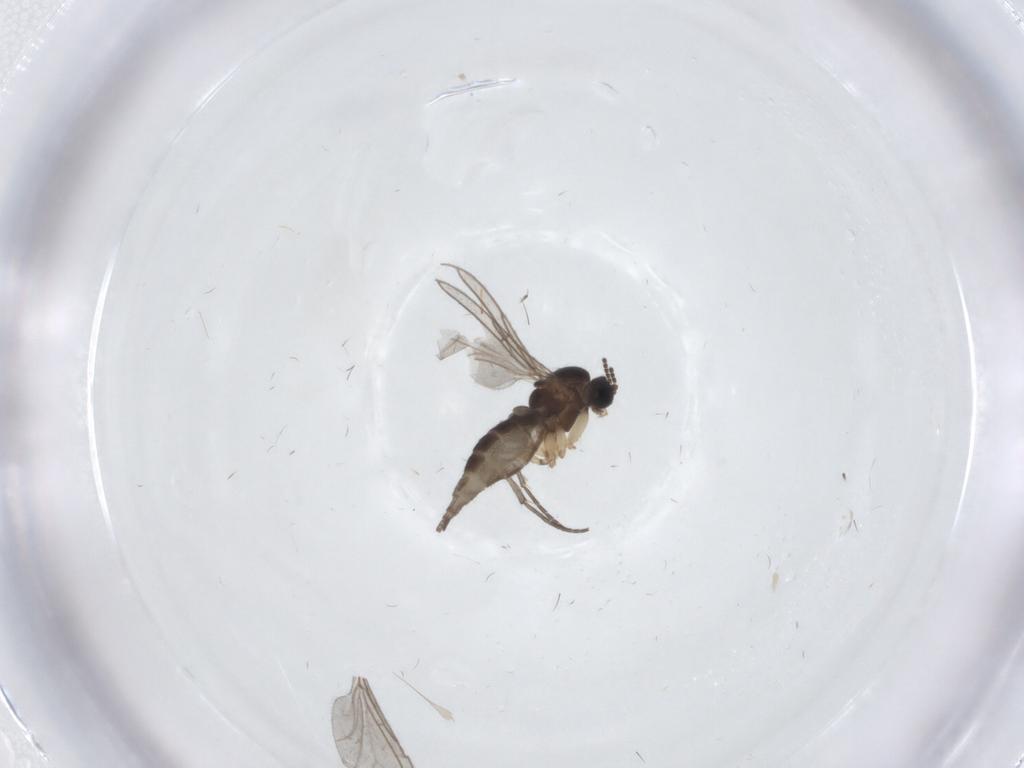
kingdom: Animalia
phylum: Arthropoda
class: Insecta
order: Diptera
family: Sciaridae
